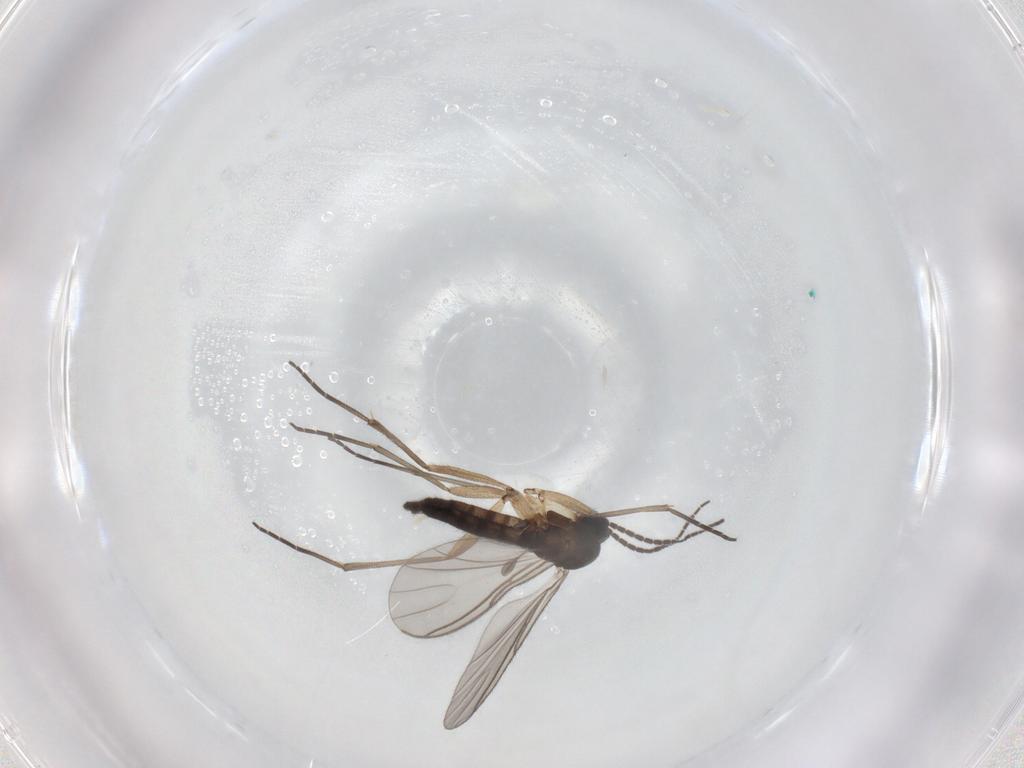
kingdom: Animalia
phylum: Arthropoda
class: Insecta
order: Diptera
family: Sciaridae
